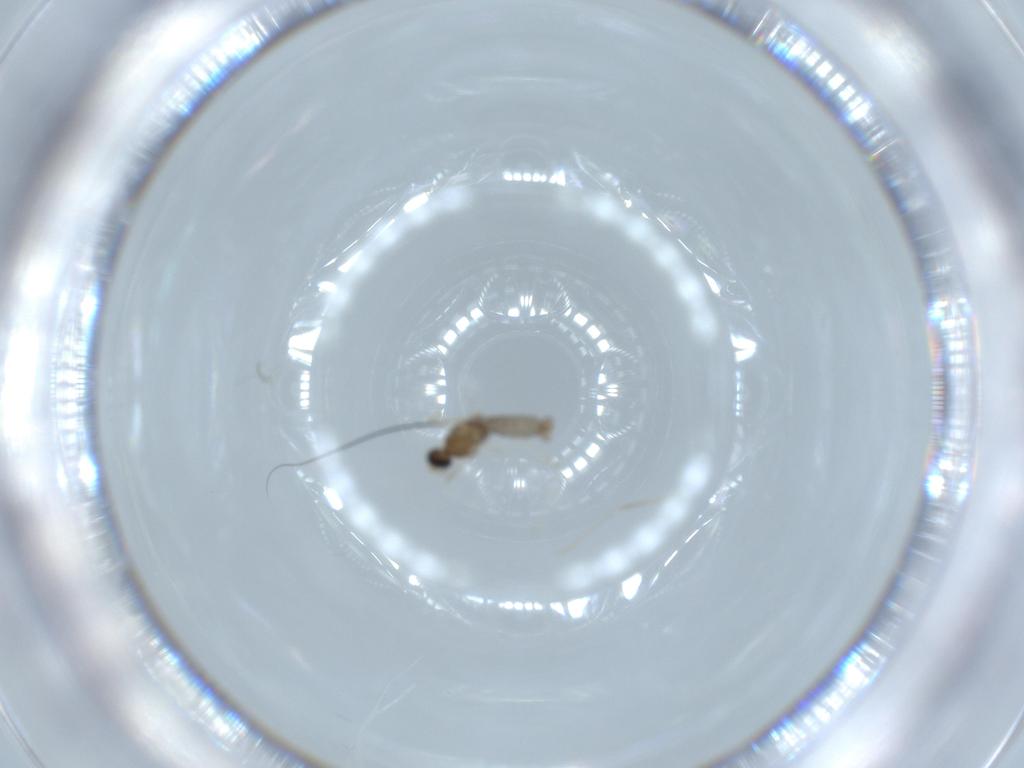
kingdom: Animalia
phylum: Arthropoda
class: Insecta
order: Diptera
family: Cecidomyiidae
